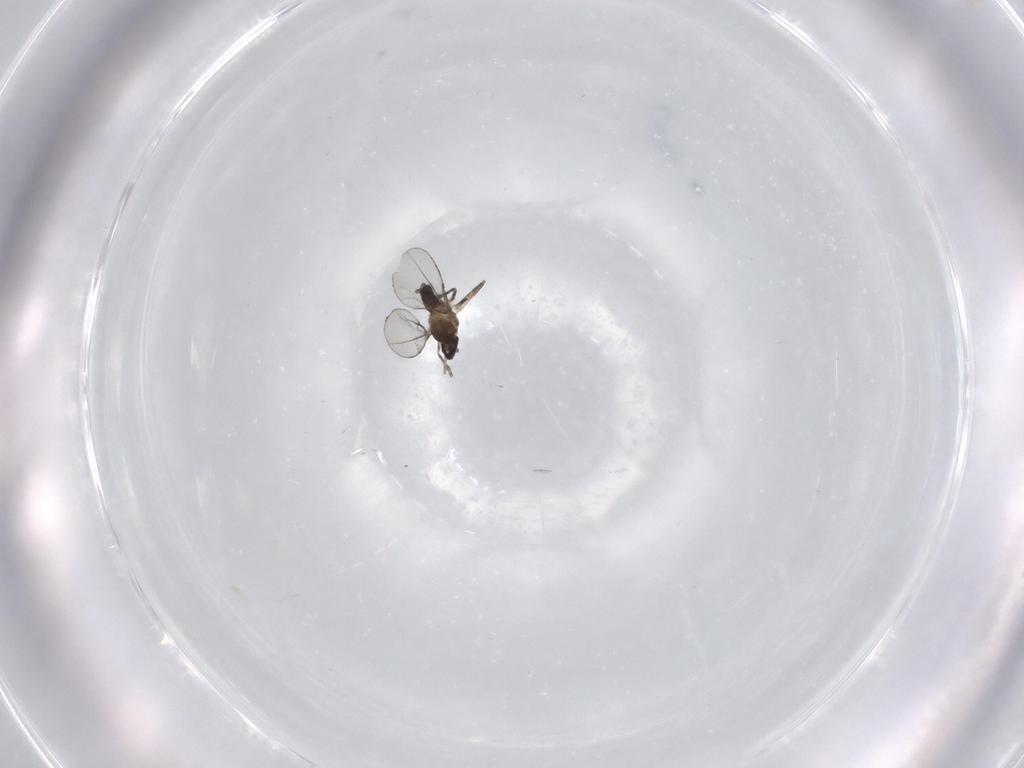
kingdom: Animalia
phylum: Arthropoda
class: Insecta
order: Diptera
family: Cecidomyiidae
